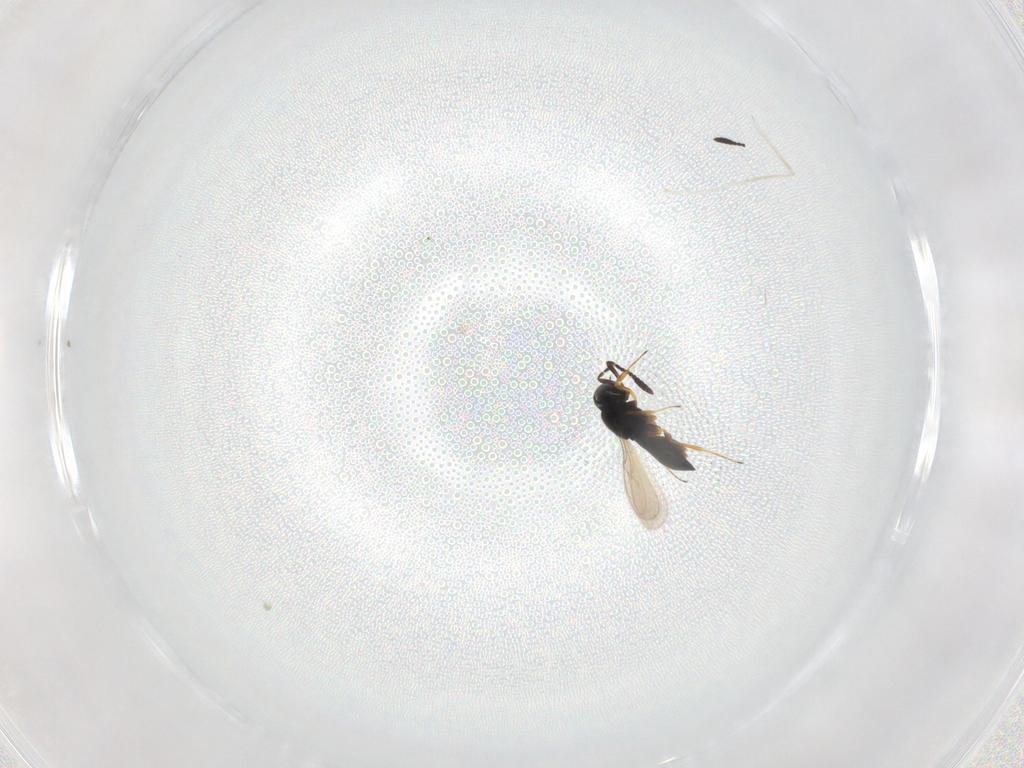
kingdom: Animalia
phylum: Arthropoda
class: Insecta
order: Hymenoptera
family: Scelionidae
